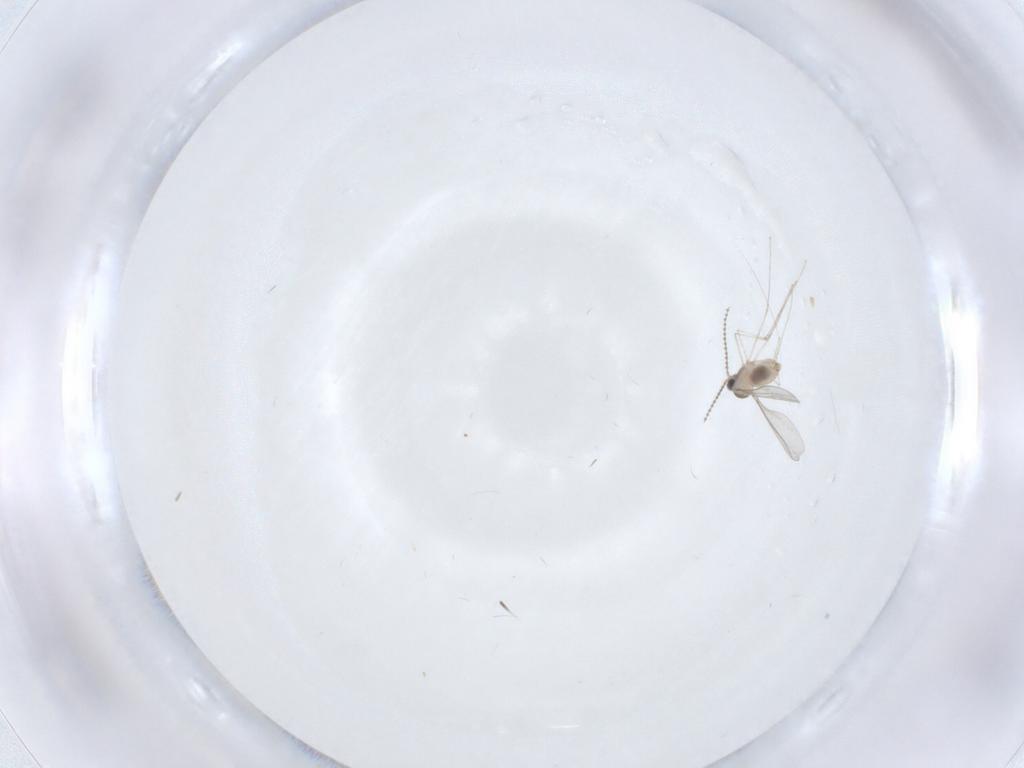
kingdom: Animalia
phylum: Arthropoda
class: Insecta
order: Diptera
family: Cecidomyiidae
